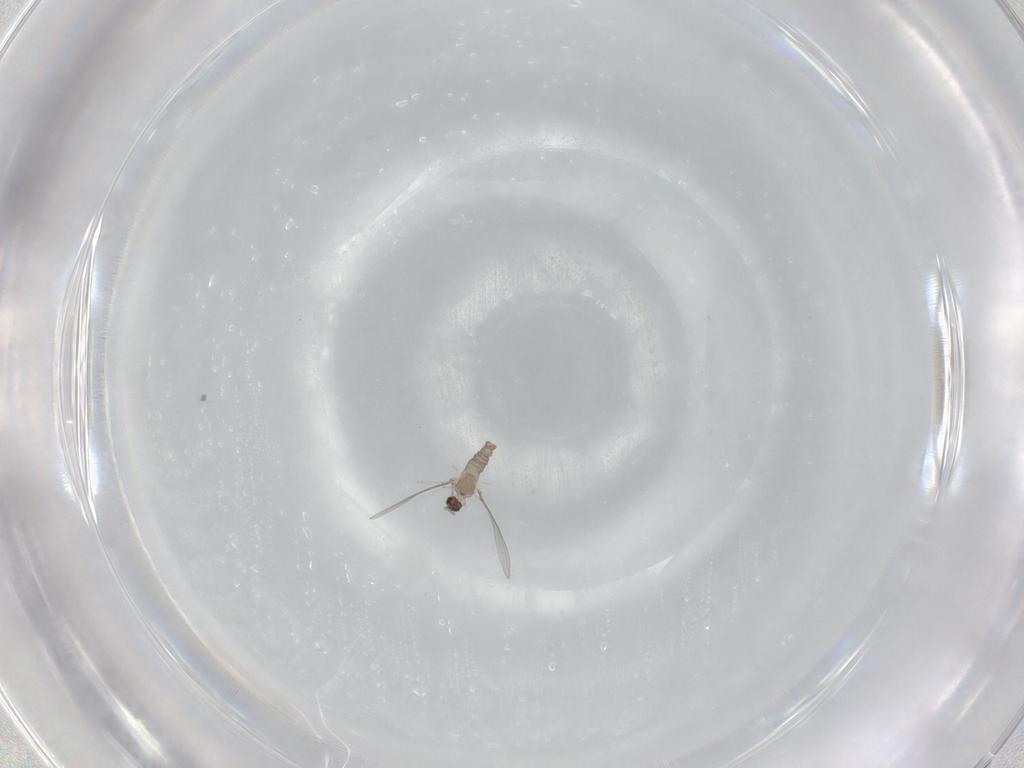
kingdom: Animalia
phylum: Arthropoda
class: Insecta
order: Diptera
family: Cecidomyiidae
